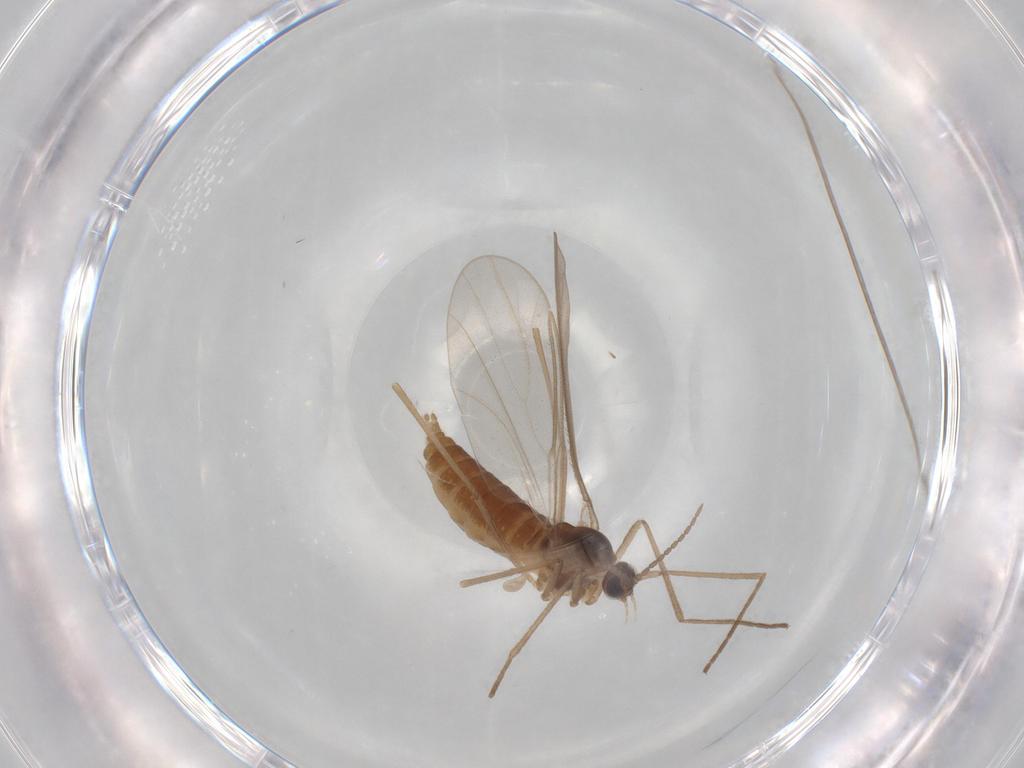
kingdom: Animalia
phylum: Arthropoda
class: Insecta
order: Diptera
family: Cecidomyiidae
